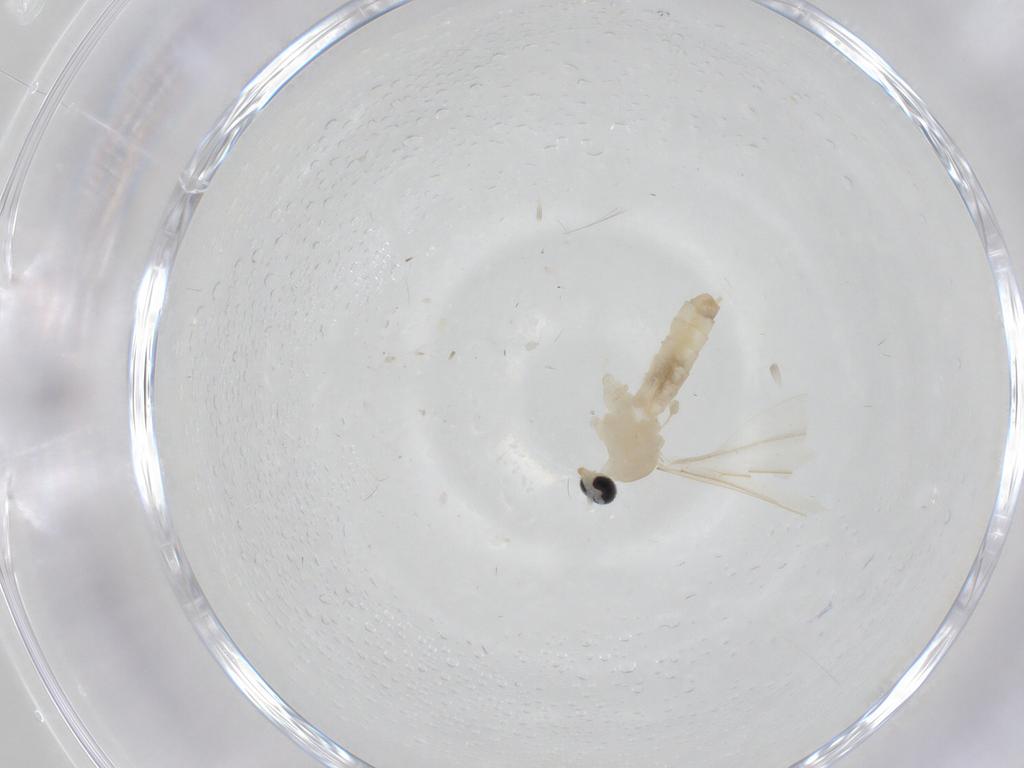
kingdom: Animalia
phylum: Arthropoda
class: Insecta
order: Diptera
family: Cecidomyiidae
